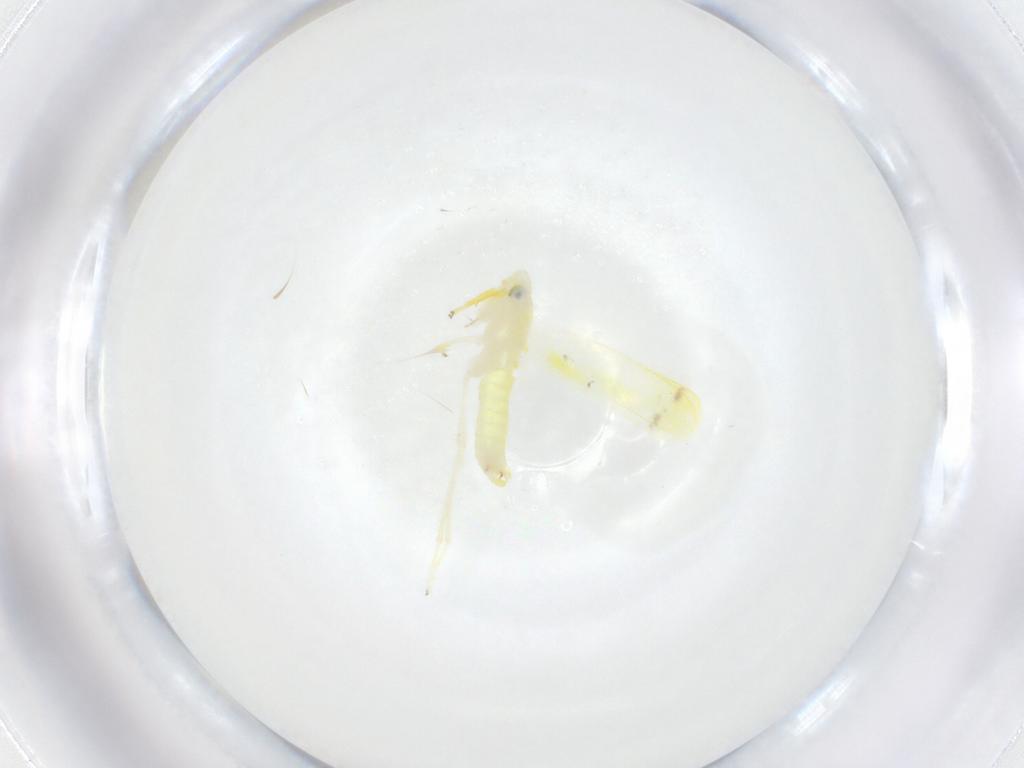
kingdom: Animalia
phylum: Arthropoda
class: Insecta
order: Hemiptera
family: Cicadellidae
